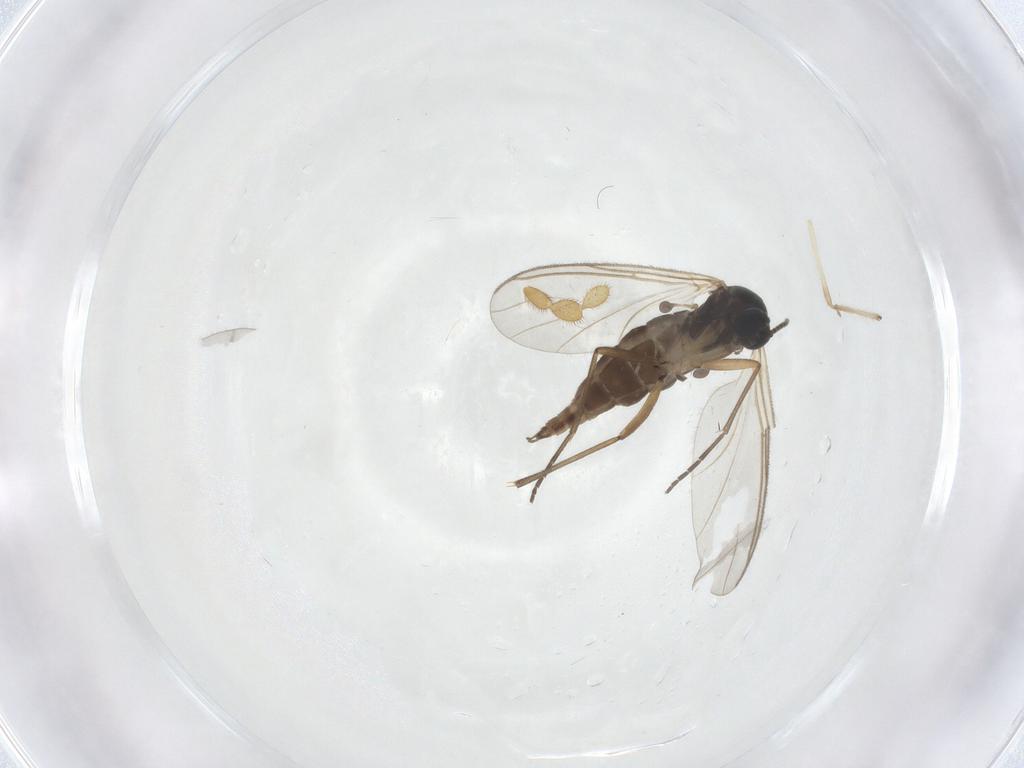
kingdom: Animalia
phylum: Arthropoda
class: Insecta
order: Diptera
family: Sciaridae
